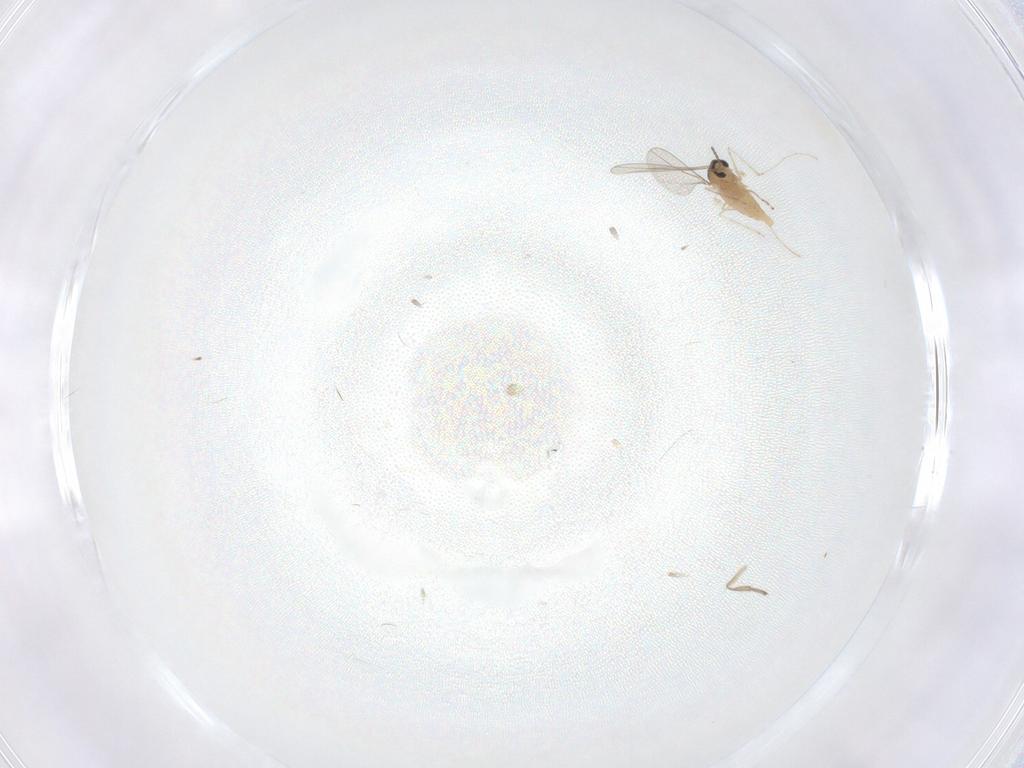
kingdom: Animalia
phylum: Arthropoda
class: Insecta
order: Diptera
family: Psychodidae
